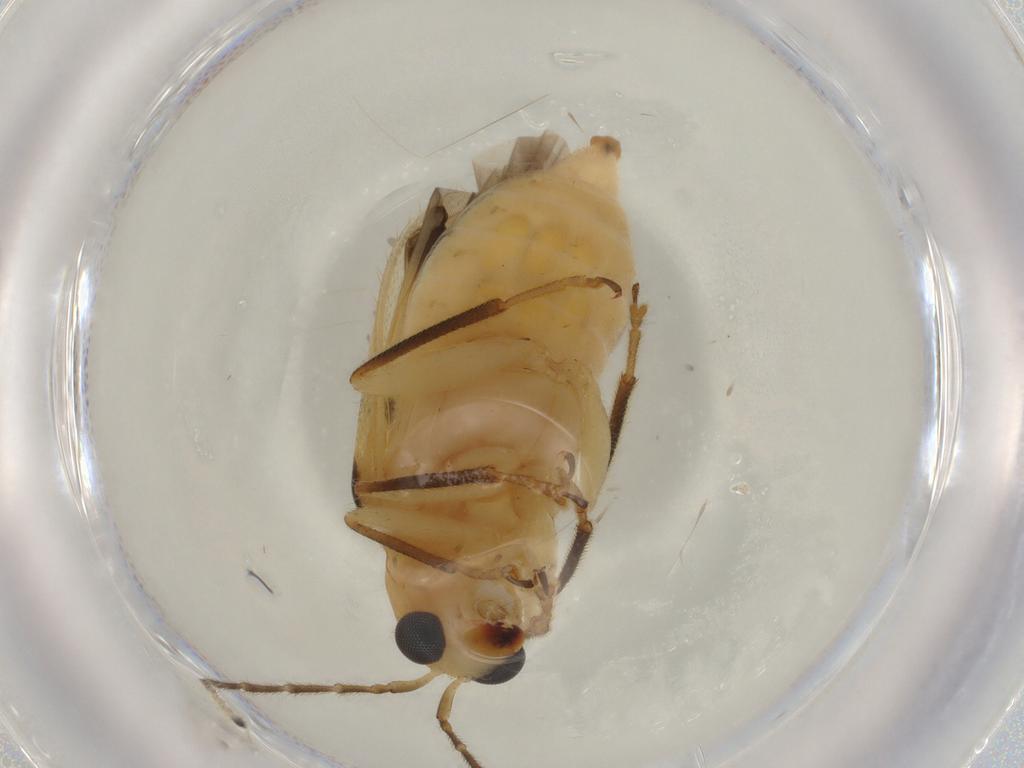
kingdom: Animalia
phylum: Arthropoda
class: Insecta
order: Coleoptera
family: Chrysomelidae
